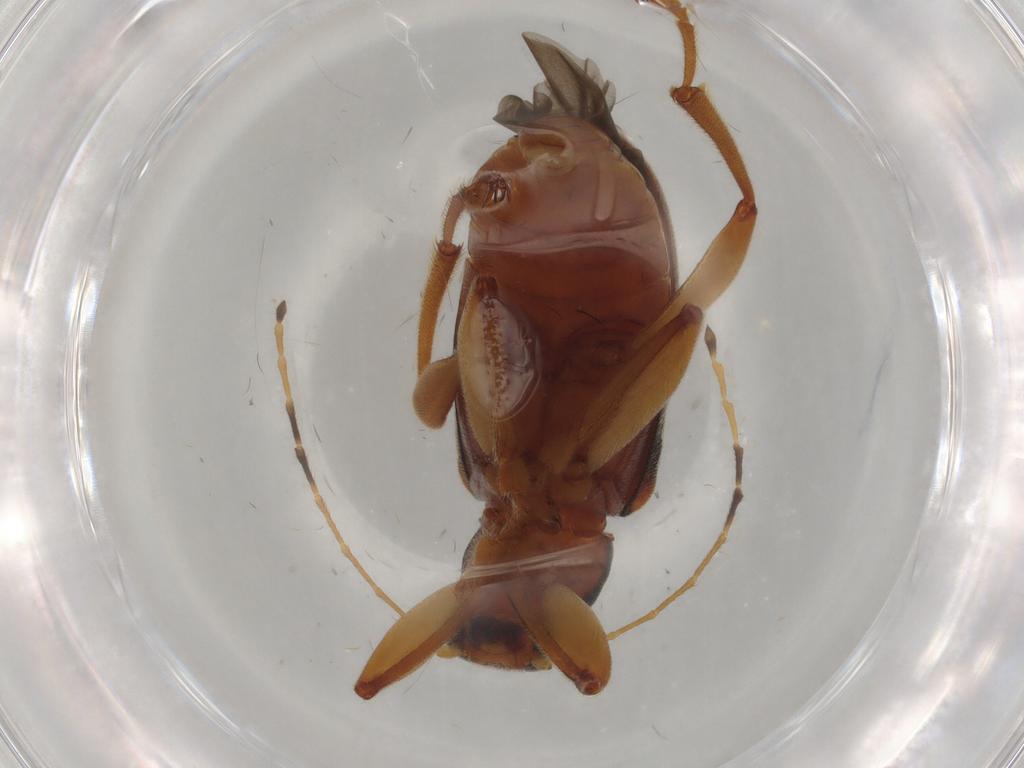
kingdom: Animalia
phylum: Arthropoda
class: Insecta
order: Coleoptera
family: Chrysomelidae
